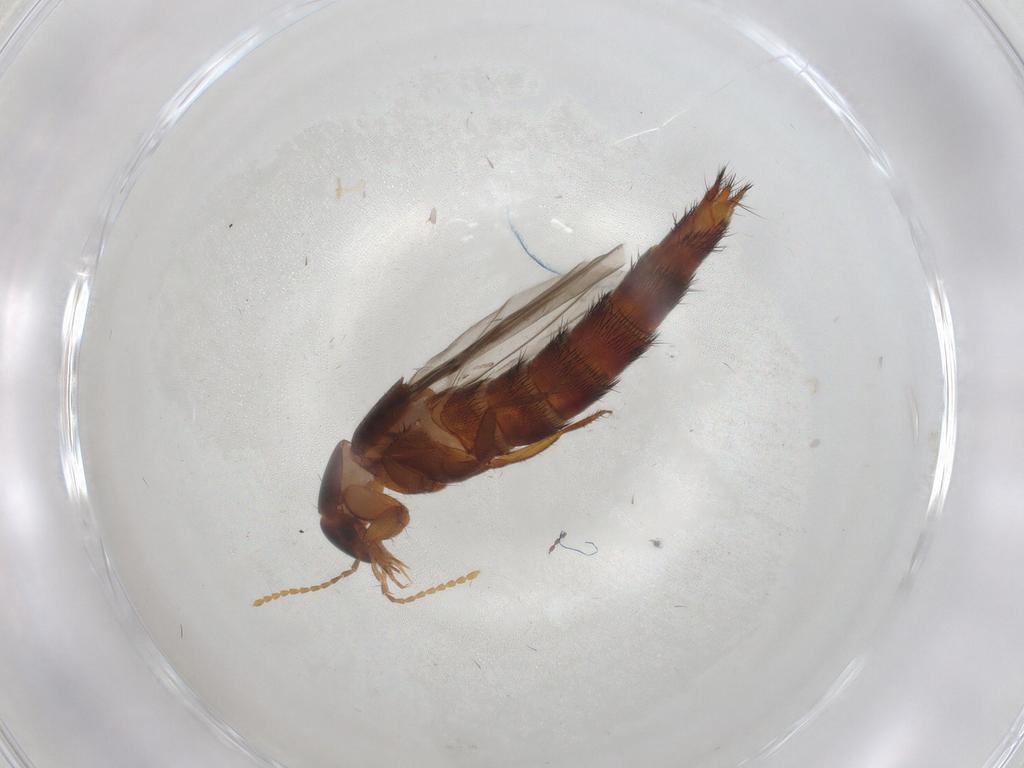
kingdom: Animalia
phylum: Arthropoda
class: Insecta
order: Coleoptera
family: Staphylinidae
